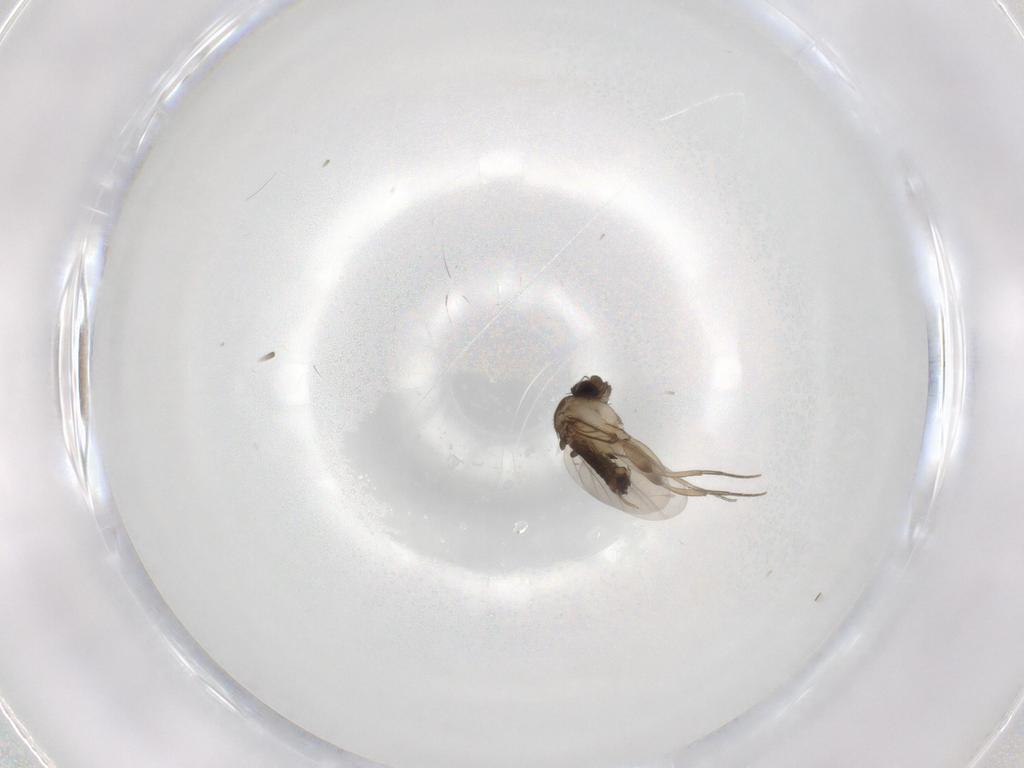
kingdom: Animalia
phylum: Arthropoda
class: Insecta
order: Diptera
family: Phoridae
